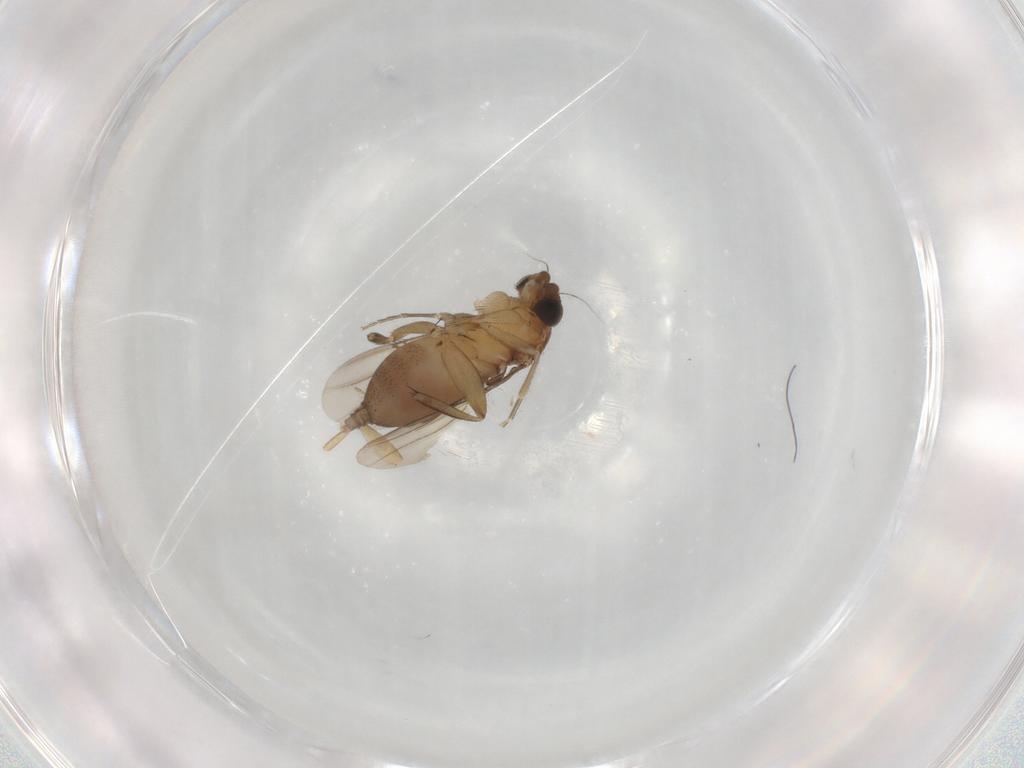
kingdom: Animalia
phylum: Arthropoda
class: Insecta
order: Diptera
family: Phoridae
